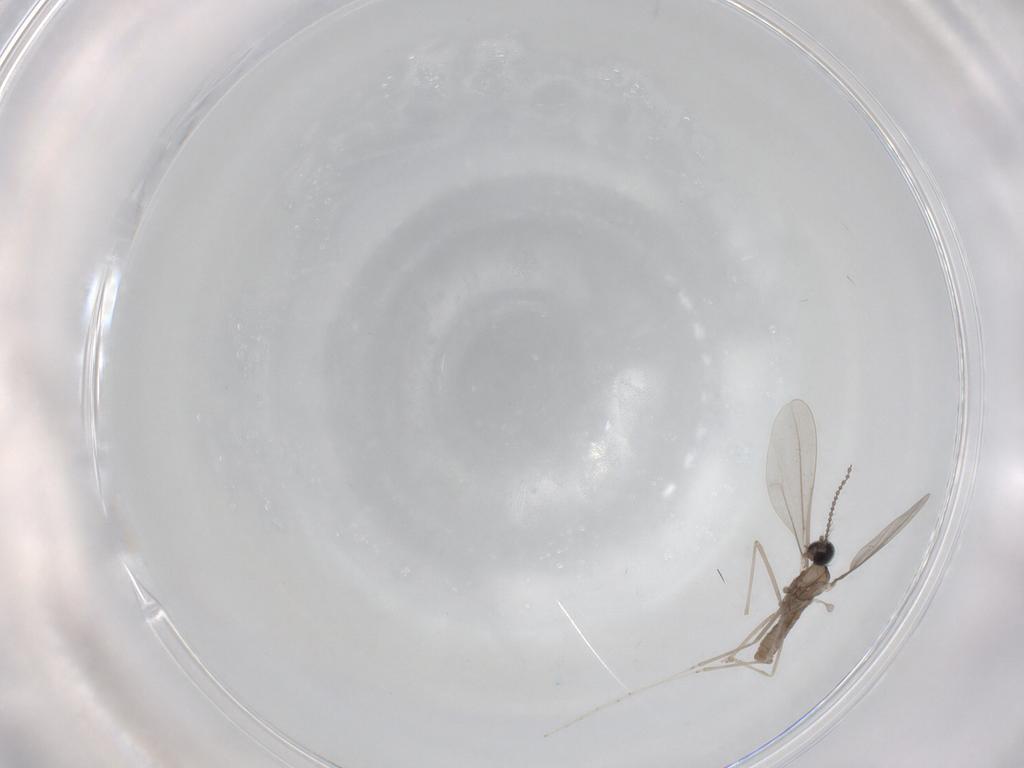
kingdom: Animalia
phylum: Arthropoda
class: Insecta
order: Diptera
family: Cecidomyiidae
